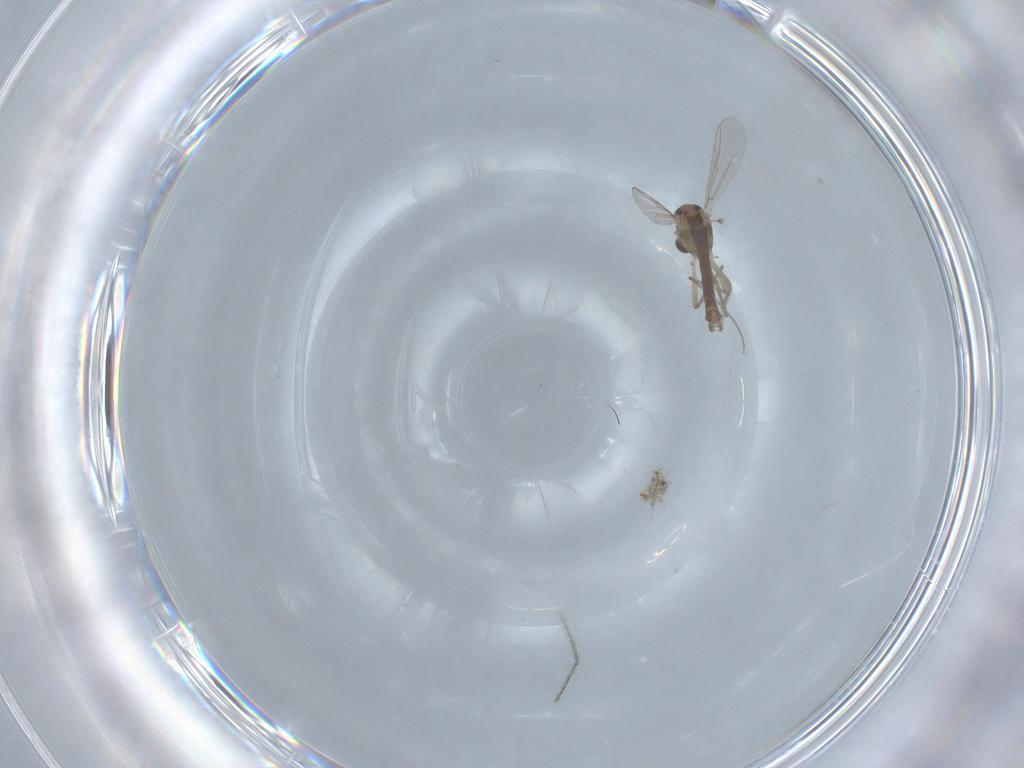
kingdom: Animalia
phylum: Arthropoda
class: Insecta
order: Diptera
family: Chironomidae
